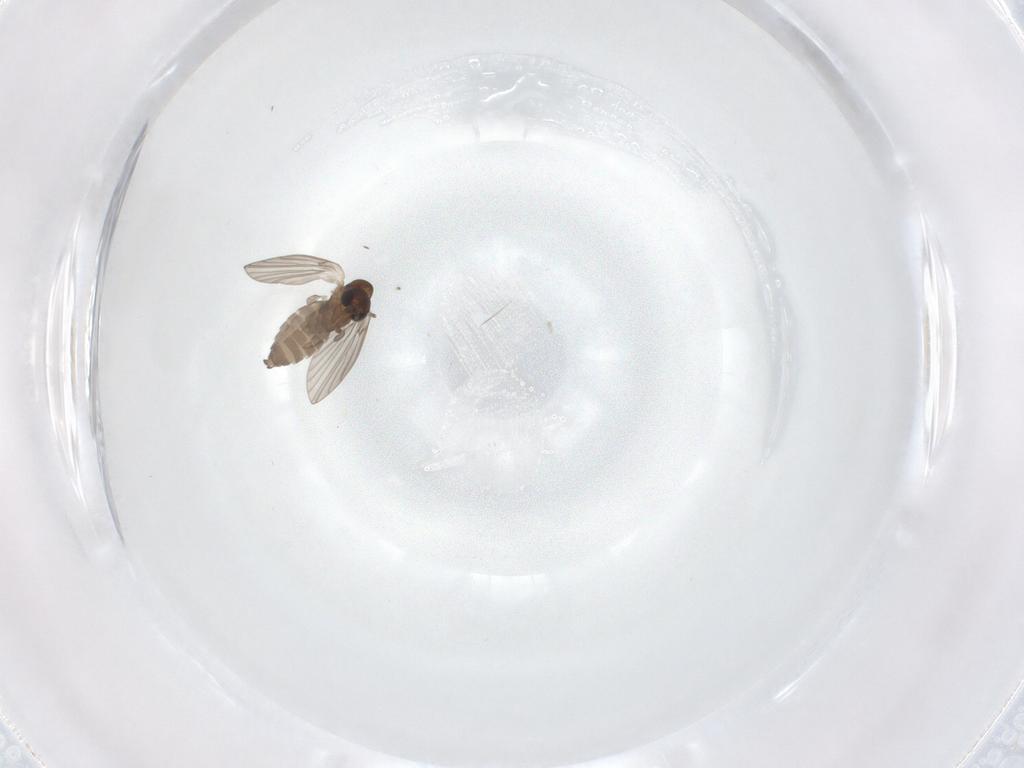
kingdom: Animalia
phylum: Arthropoda
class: Insecta
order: Diptera
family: Psychodidae
